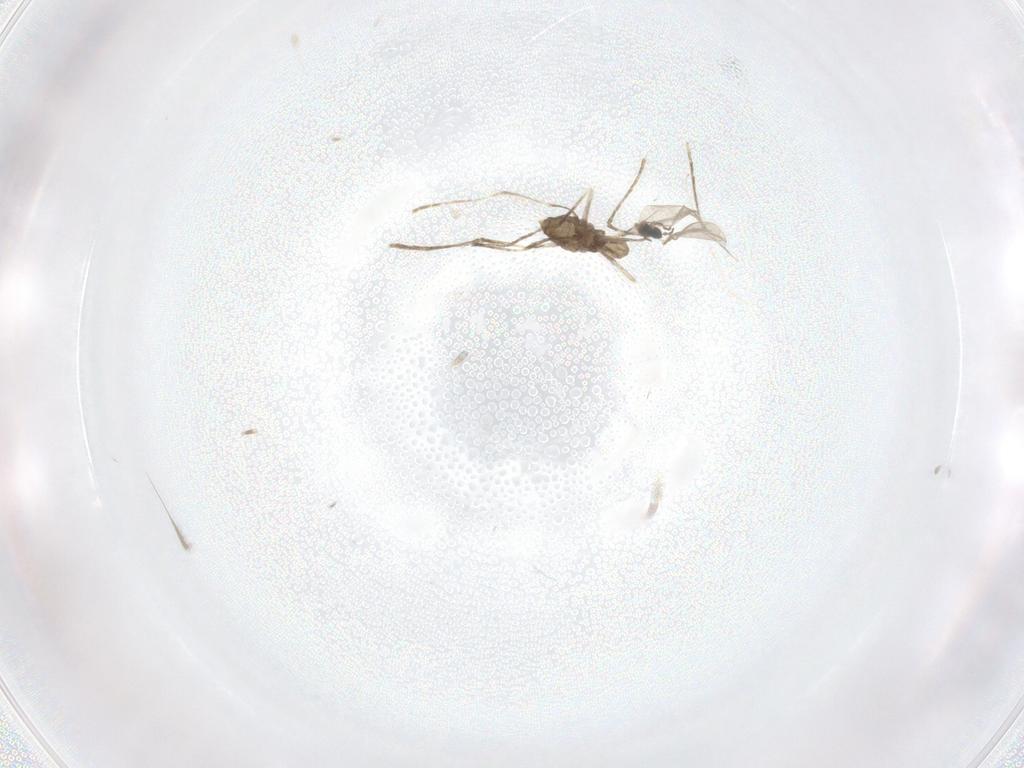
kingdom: Animalia
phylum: Arthropoda
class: Insecta
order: Diptera
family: Cecidomyiidae
